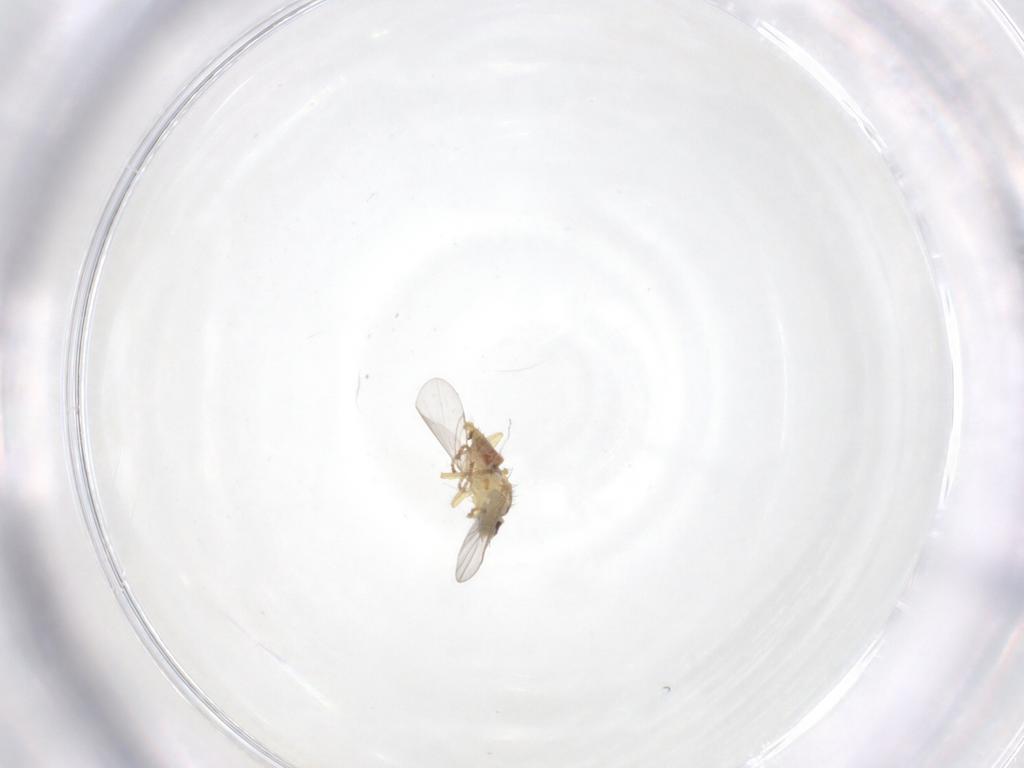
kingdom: Animalia
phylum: Arthropoda
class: Insecta
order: Diptera
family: Agromyzidae
